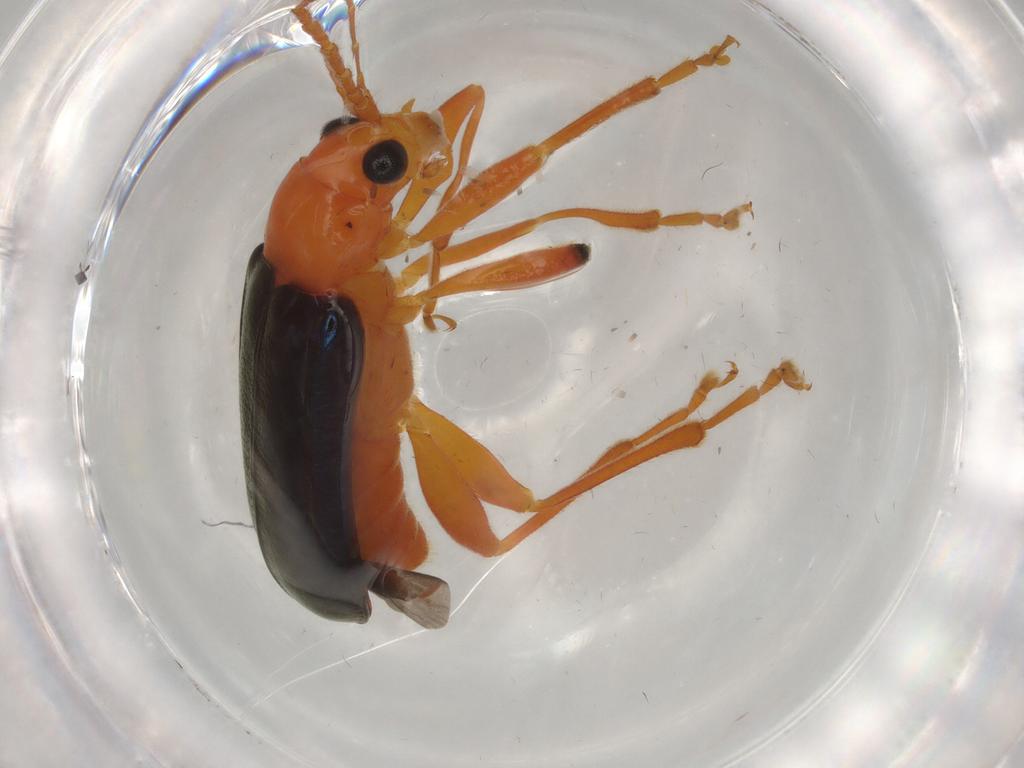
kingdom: Animalia
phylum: Arthropoda
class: Insecta
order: Coleoptera
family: Chrysomelidae
